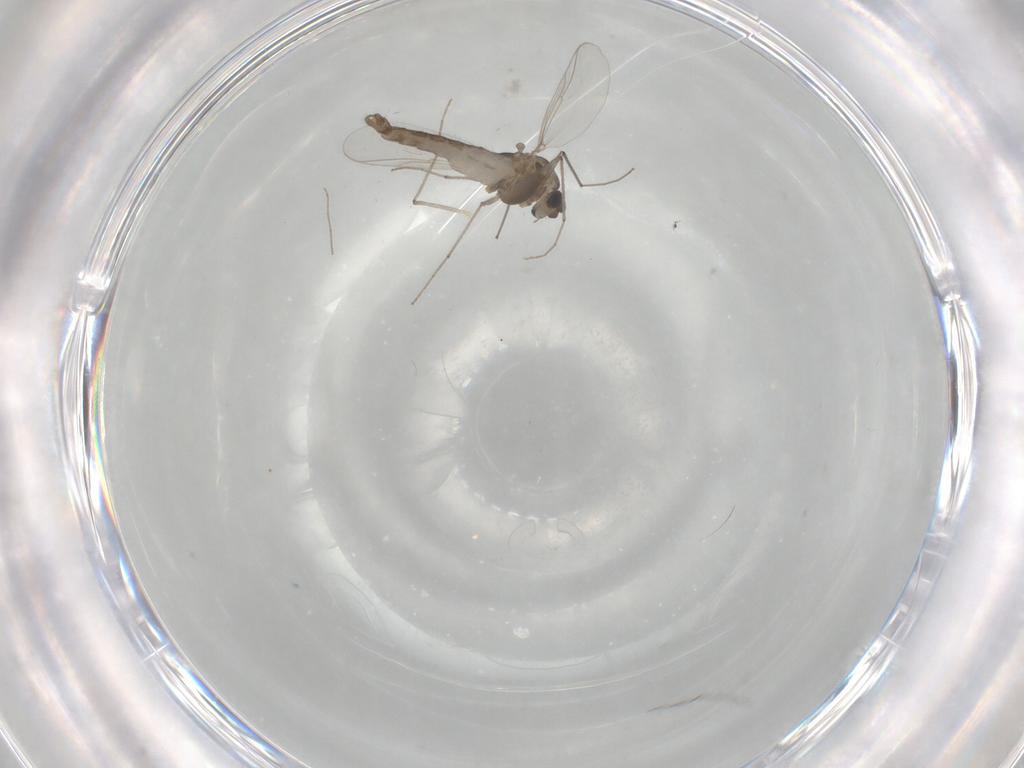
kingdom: Animalia
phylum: Arthropoda
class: Insecta
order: Diptera
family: Chironomidae
